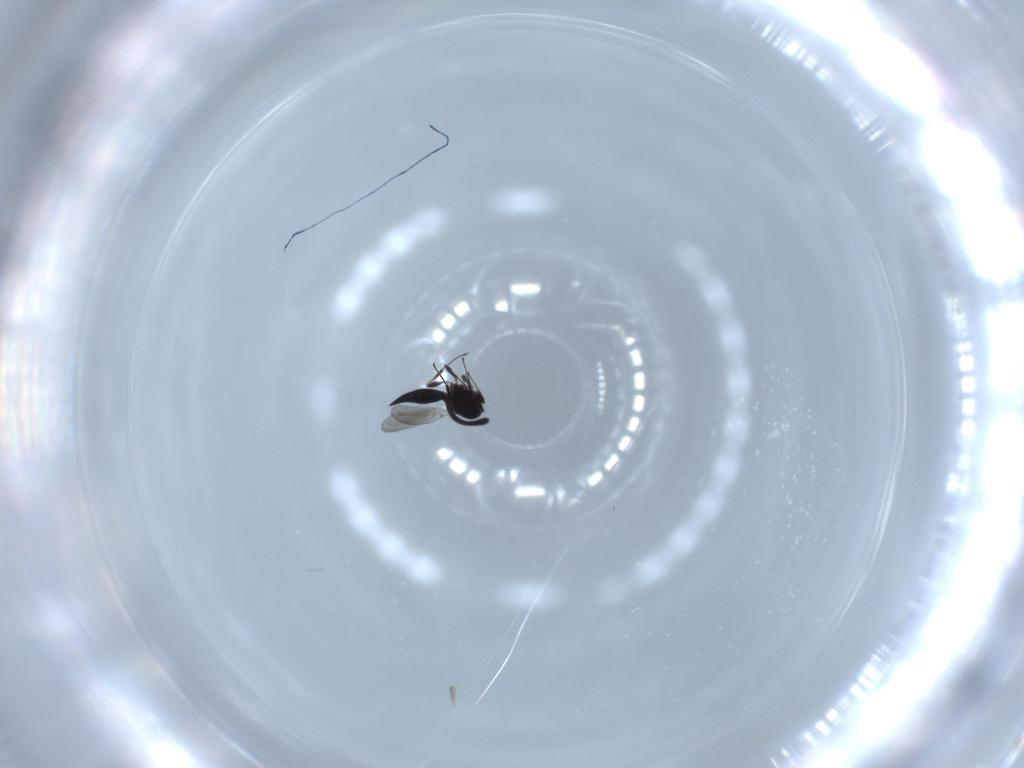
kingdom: Animalia
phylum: Arthropoda
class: Insecta
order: Hymenoptera
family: Platygastridae
